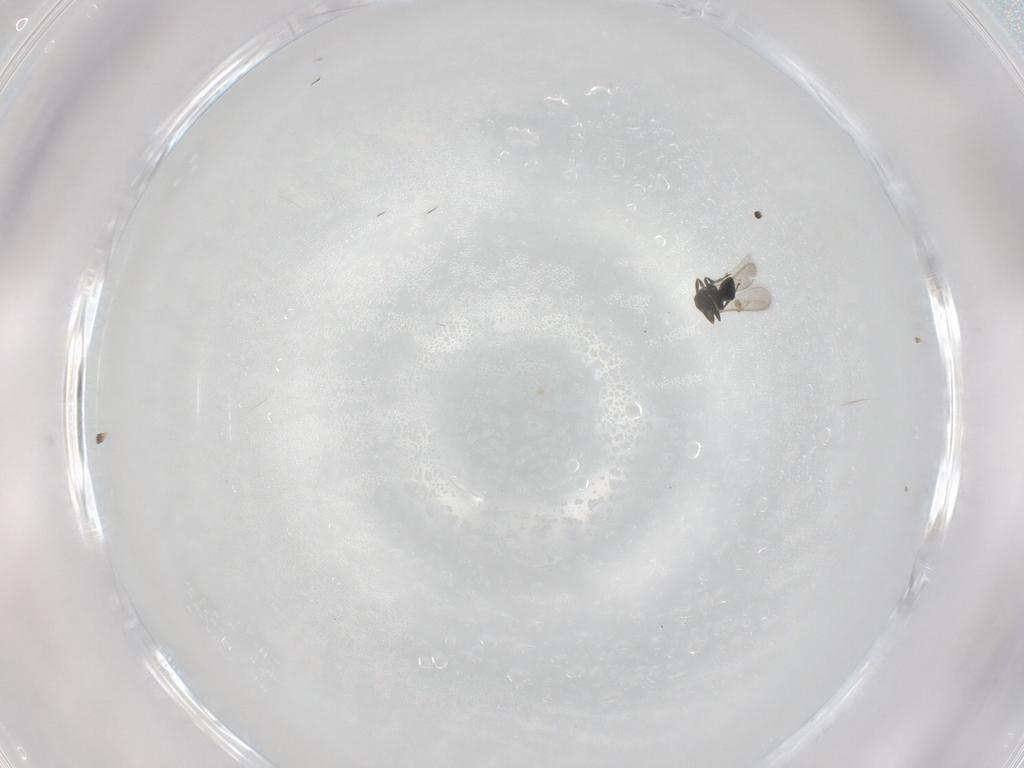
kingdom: Animalia
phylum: Arthropoda
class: Insecta
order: Hymenoptera
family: Scelionidae
